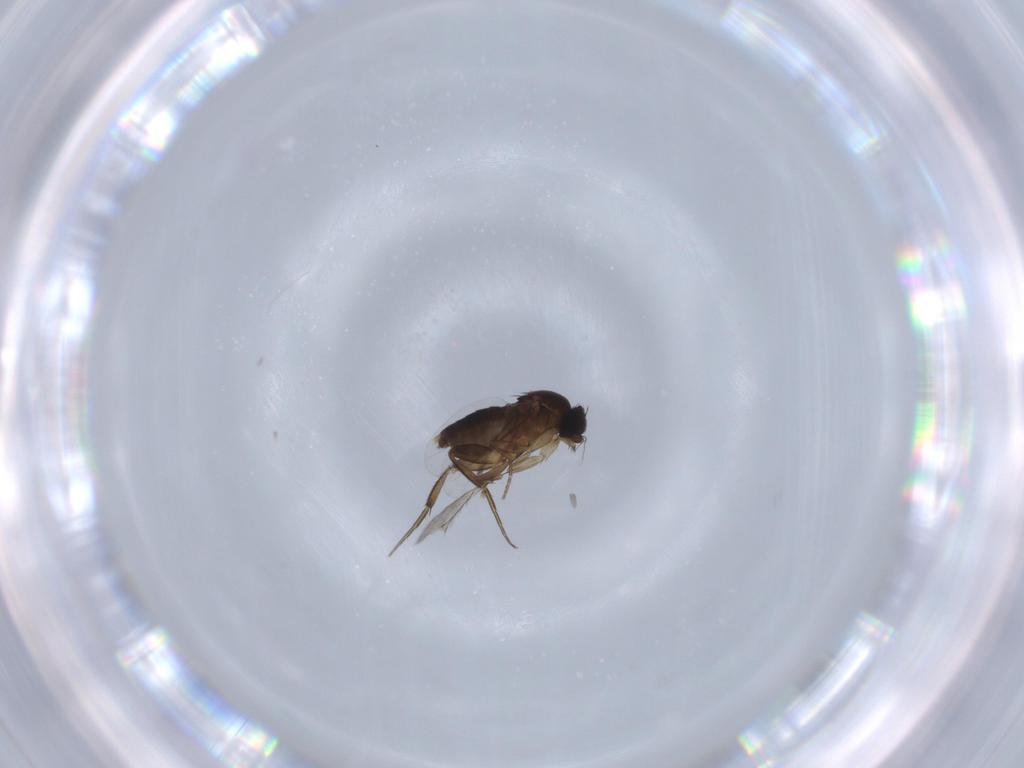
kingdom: Animalia
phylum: Arthropoda
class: Insecta
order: Diptera
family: Phoridae
